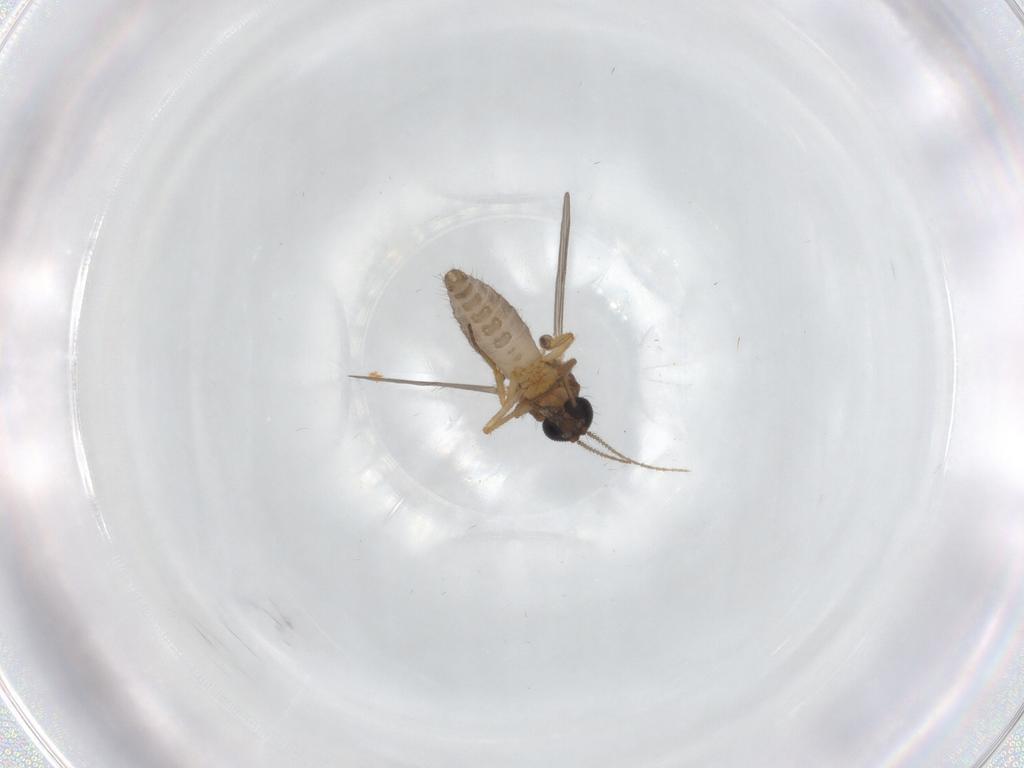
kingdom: Animalia
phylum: Arthropoda
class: Insecta
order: Diptera
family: Ceratopogonidae
